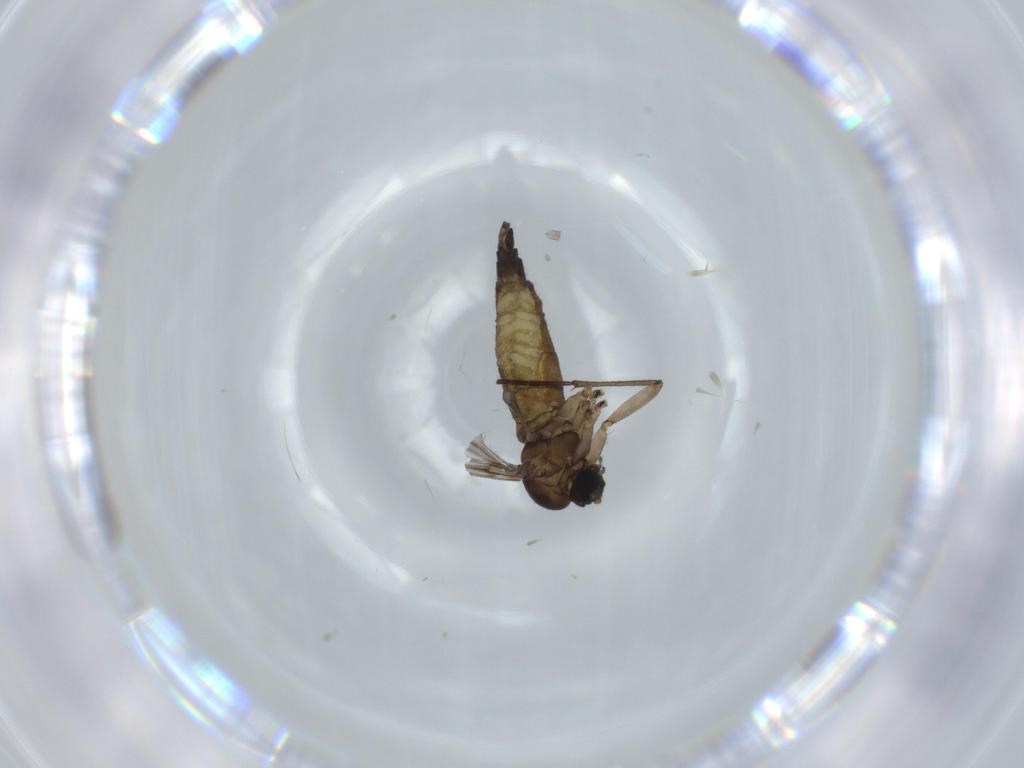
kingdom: Animalia
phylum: Arthropoda
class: Insecta
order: Diptera
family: Sciaridae
